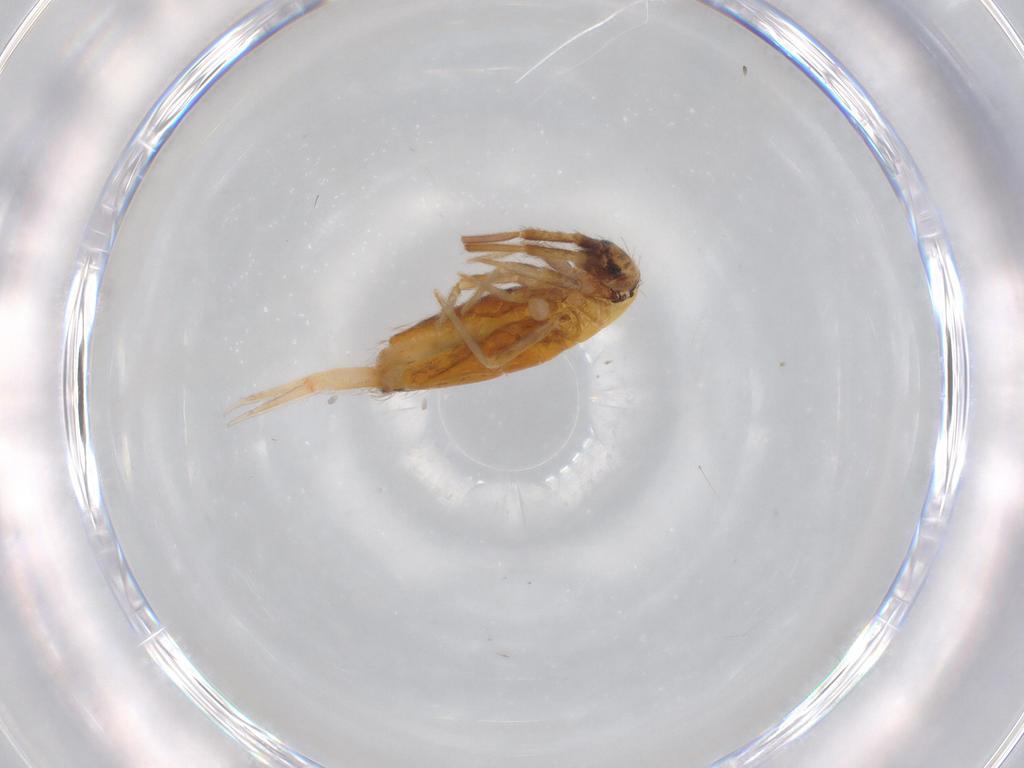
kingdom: Animalia
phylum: Arthropoda
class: Collembola
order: Entomobryomorpha
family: Entomobryidae
